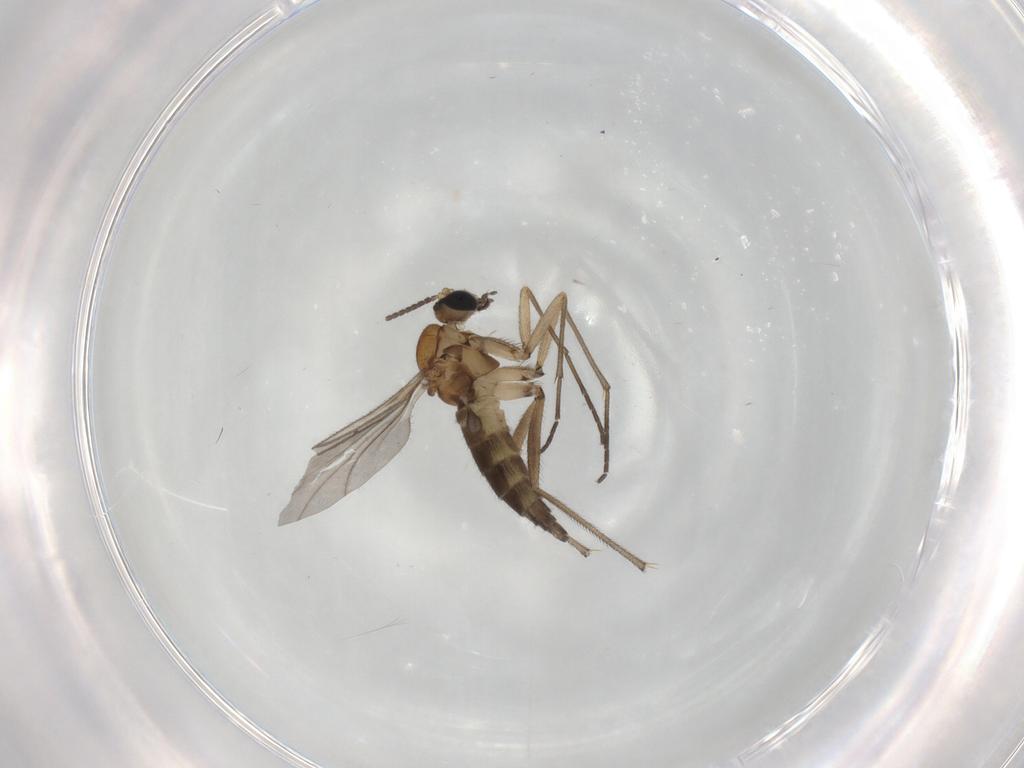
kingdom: Animalia
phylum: Arthropoda
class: Insecta
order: Diptera
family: Sciaridae
